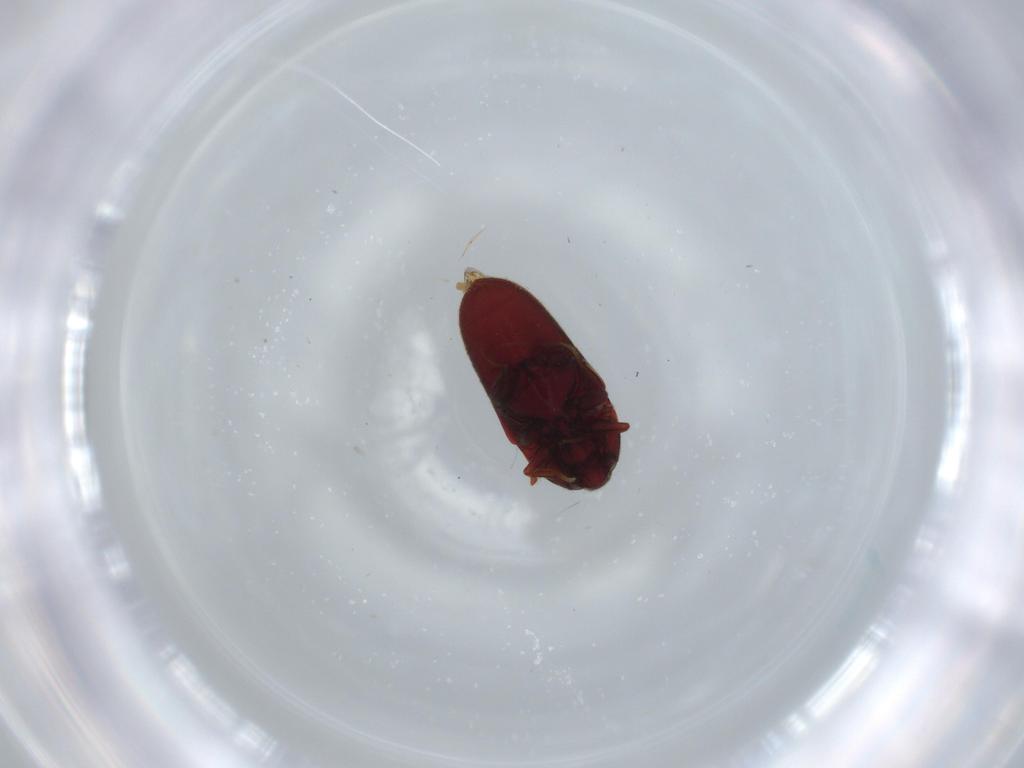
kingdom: Animalia
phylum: Arthropoda
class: Insecta
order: Coleoptera
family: Throscidae
